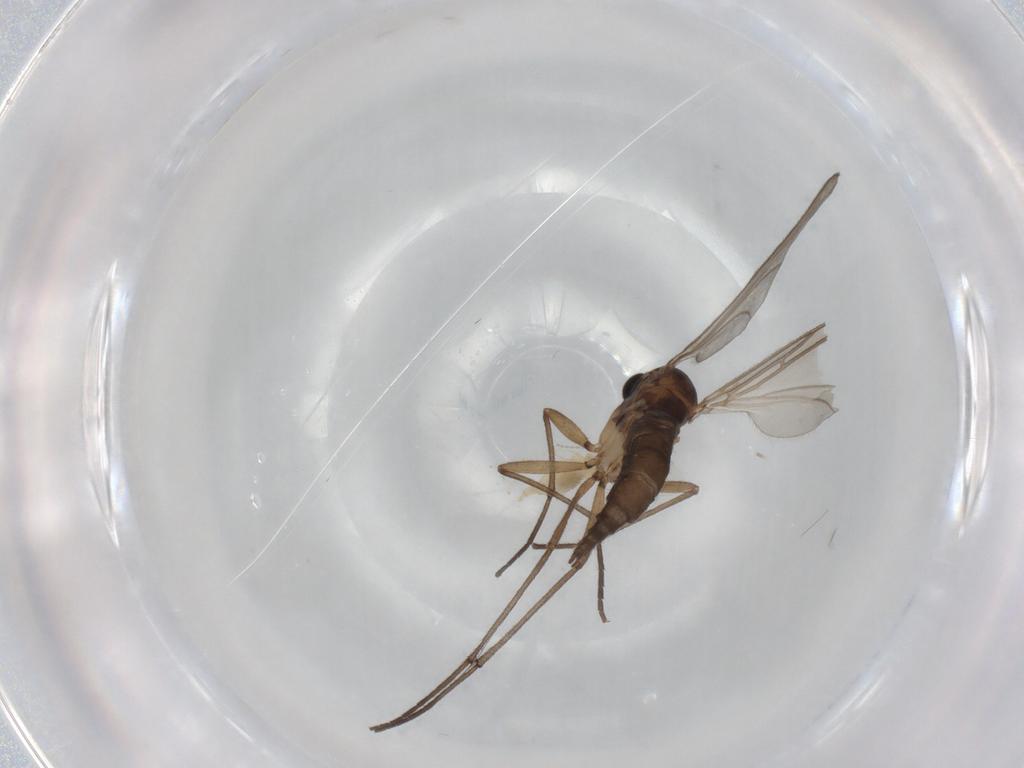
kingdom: Animalia
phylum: Arthropoda
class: Insecta
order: Diptera
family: Cecidomyiidae
